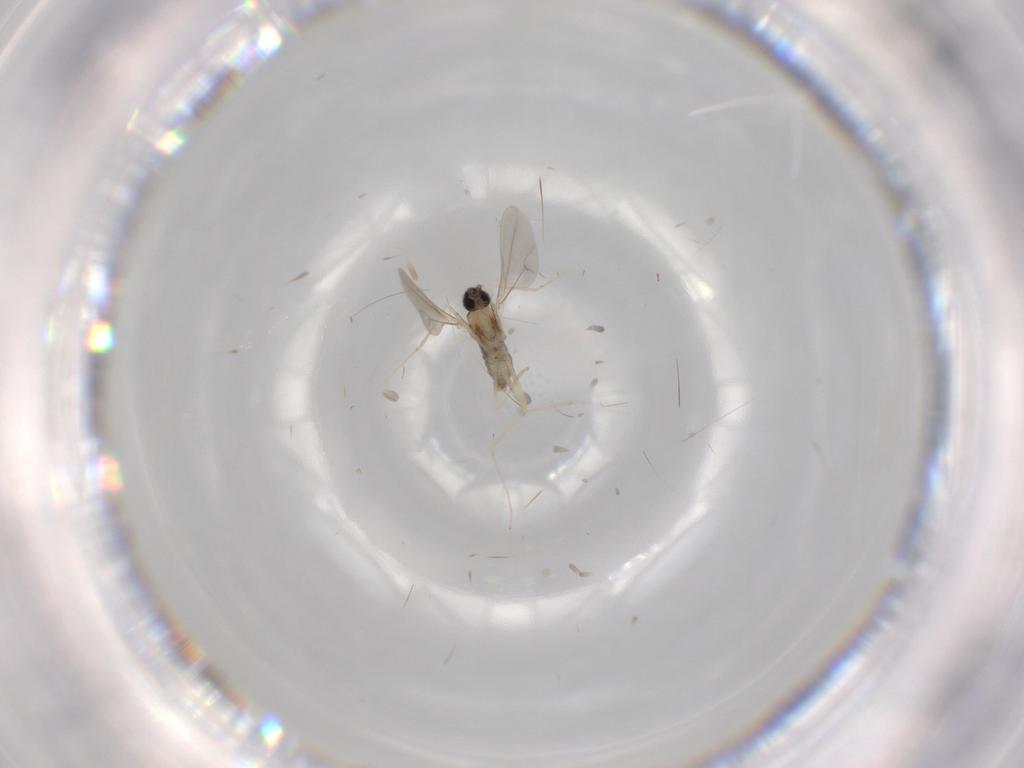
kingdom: Animalia
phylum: Arthropoda
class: Insecta
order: Diptera
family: Cecidomyiidae
